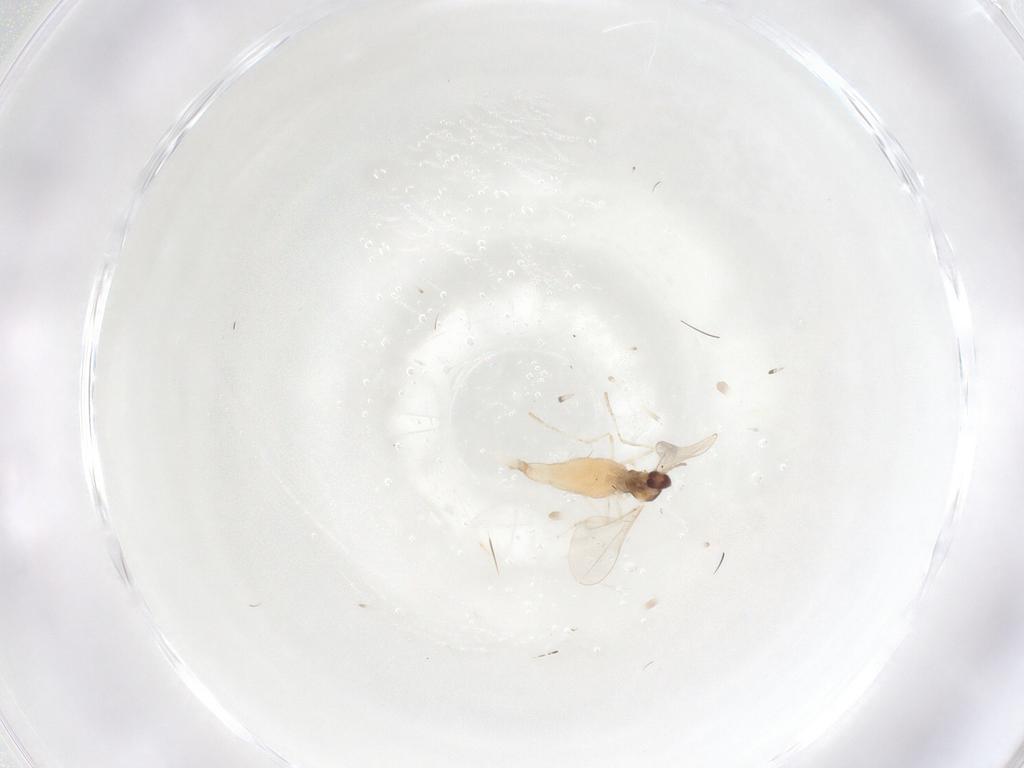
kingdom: Animalia
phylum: Arthropoda
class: Insecta
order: Diptera
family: Cecidomyiidae
